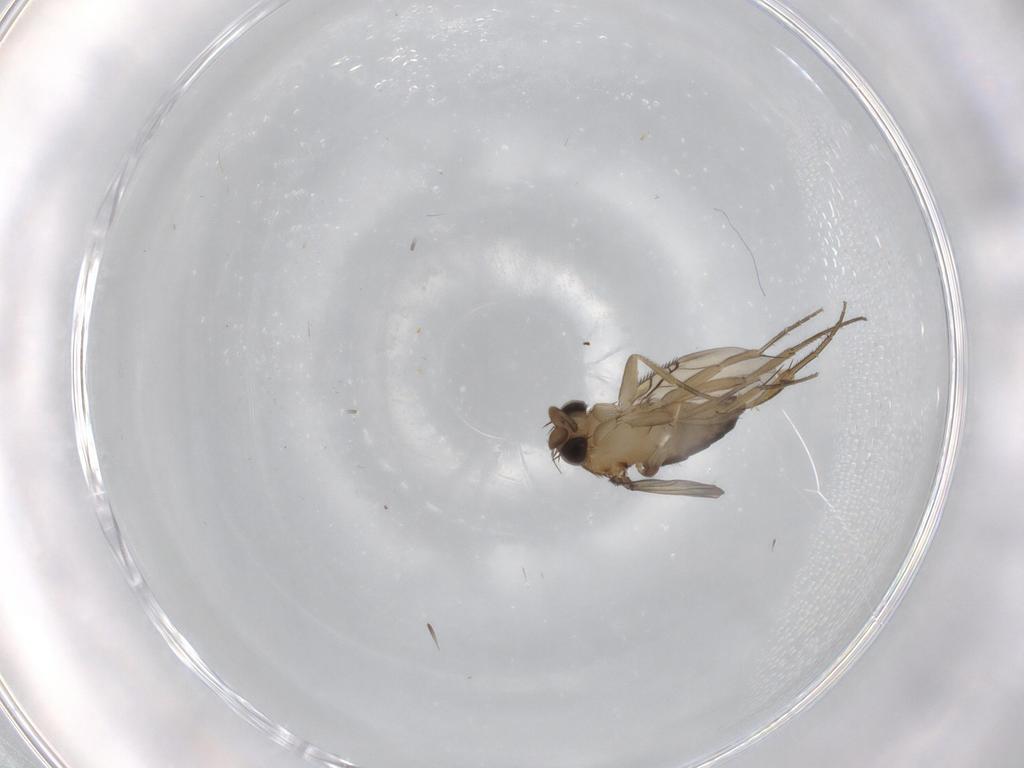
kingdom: Animalia
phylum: Arthropoda
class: Insecta
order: Diptera
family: Phoridae
